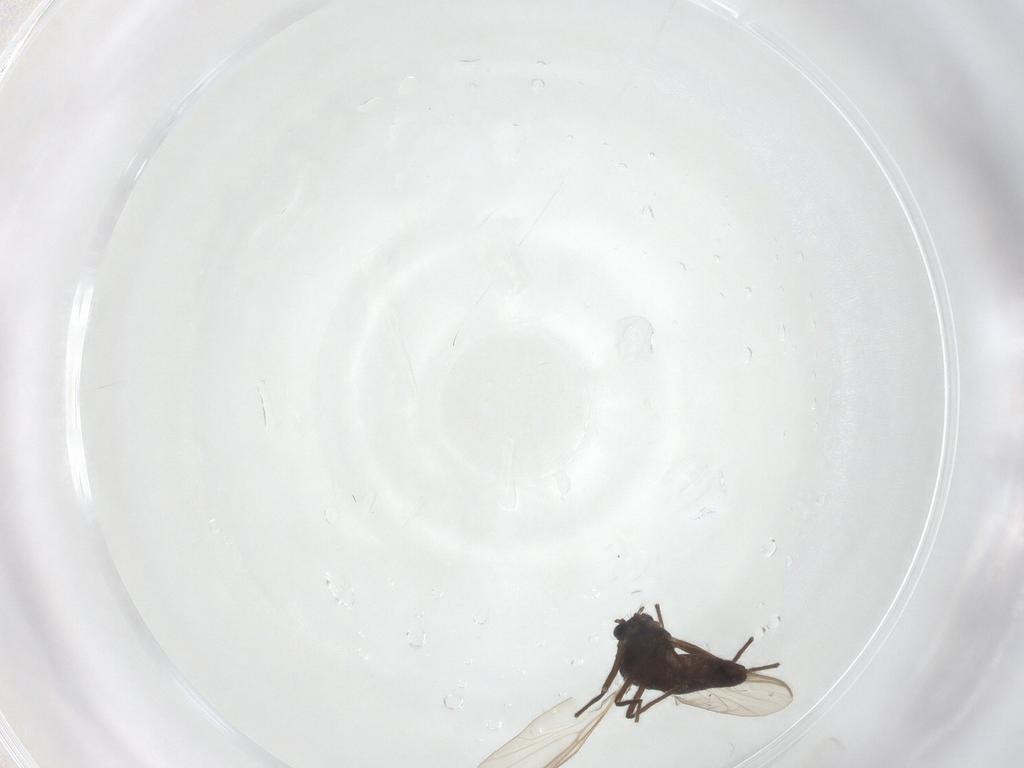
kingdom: Animalia
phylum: Arthropoda
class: Insecta
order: Diptera
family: Chironomidae
